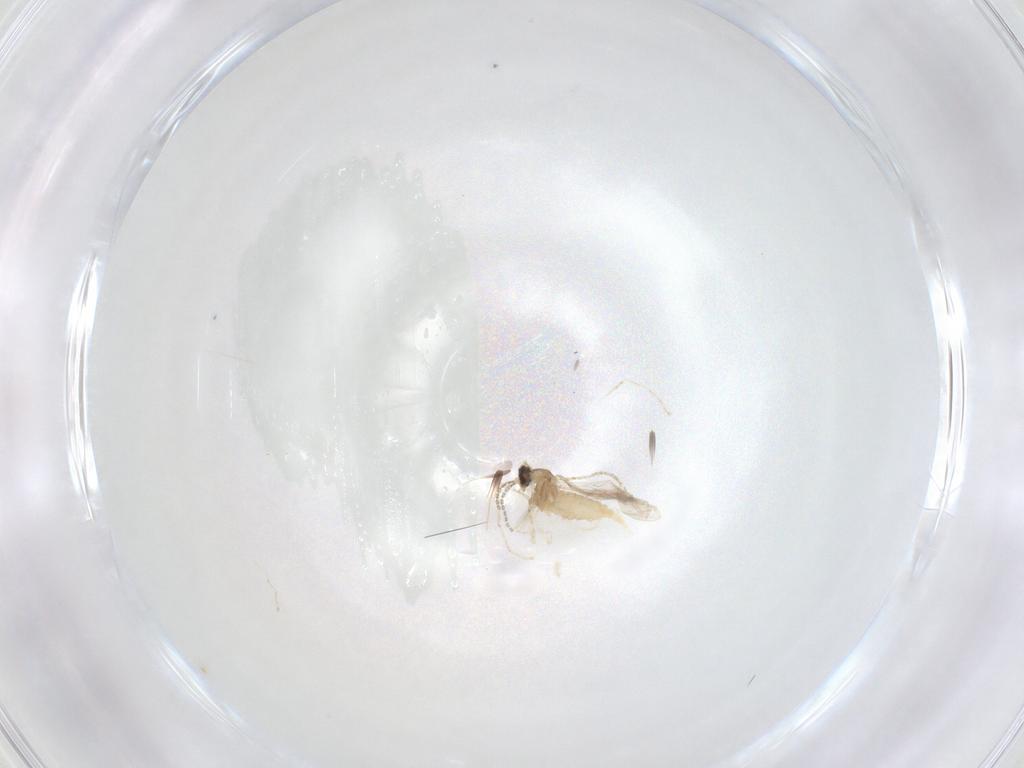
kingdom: Animalia
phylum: Arthropoda
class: Insecta
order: Diptera
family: Cecidomyiidae
